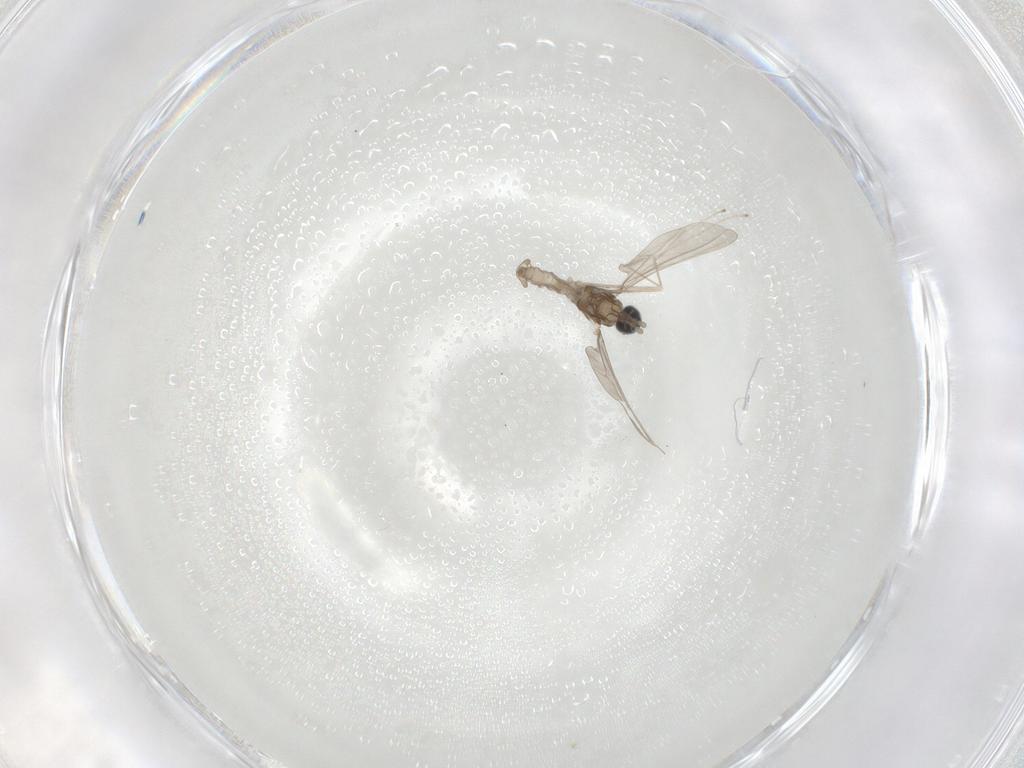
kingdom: Animalia
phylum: Arthropoda
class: Insecta
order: Diptera
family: Cecidomyiidae
